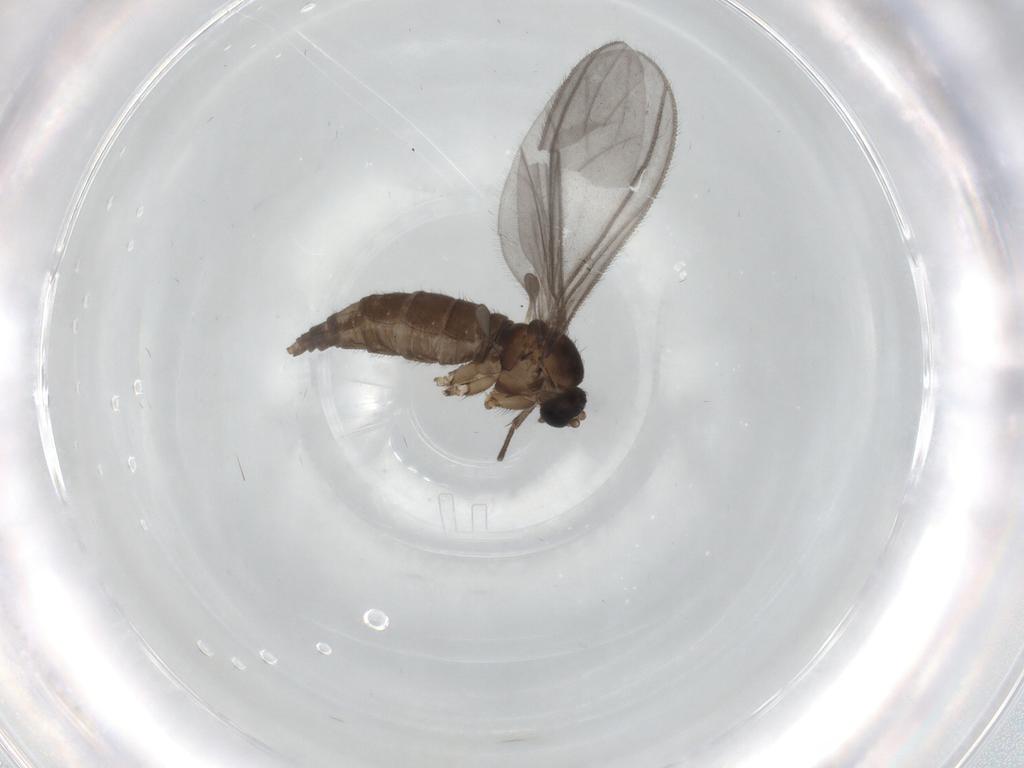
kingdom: Animalia
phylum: Arthropoda
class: Insecta
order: Diptera
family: Sciaridae
